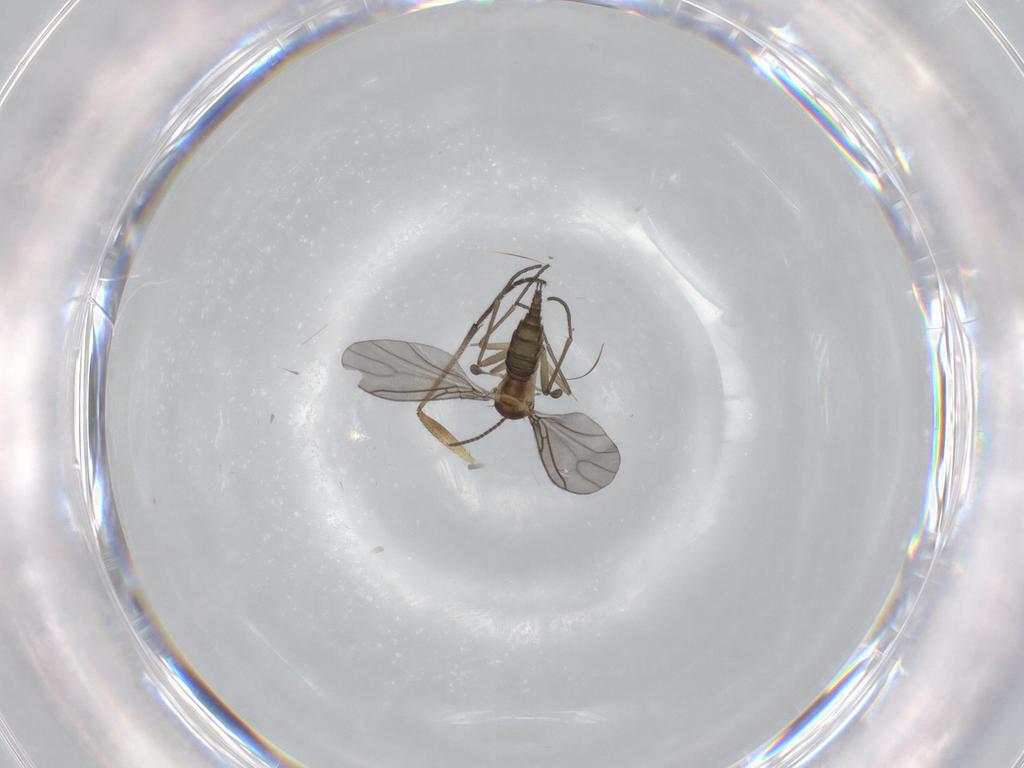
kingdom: Animalia
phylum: Arthropoda
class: Insecta
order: Diptera
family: Sciaridae
